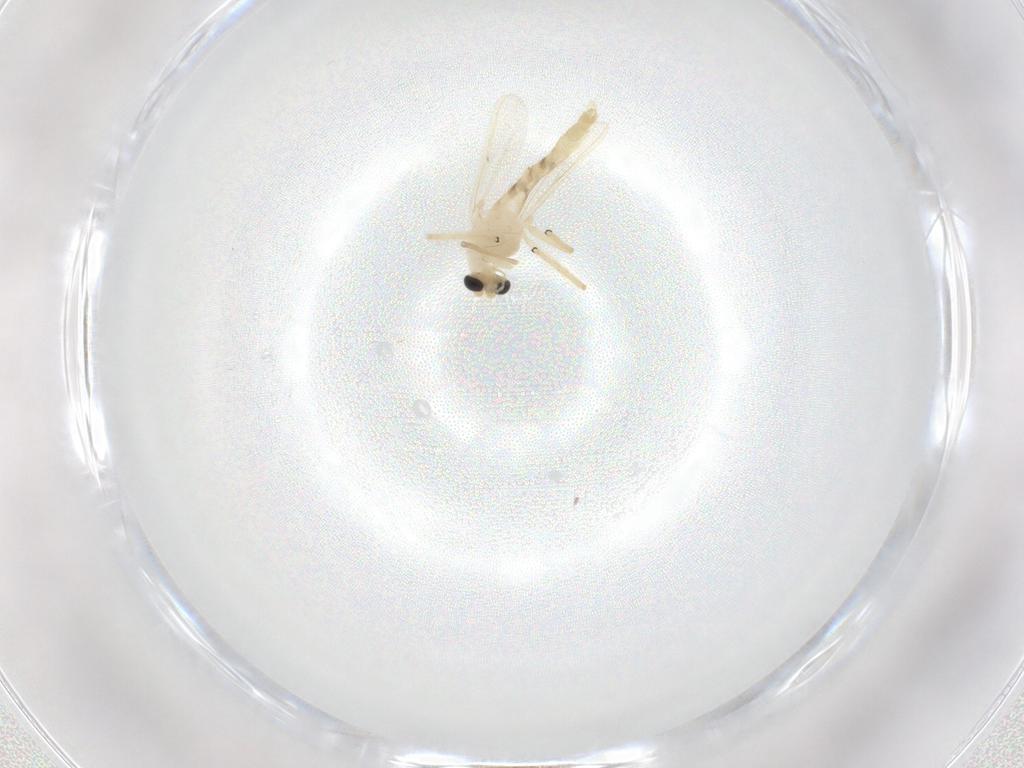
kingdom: Animalia
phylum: Arthropoda
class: Insecta
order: Diptera
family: Chironomidae
